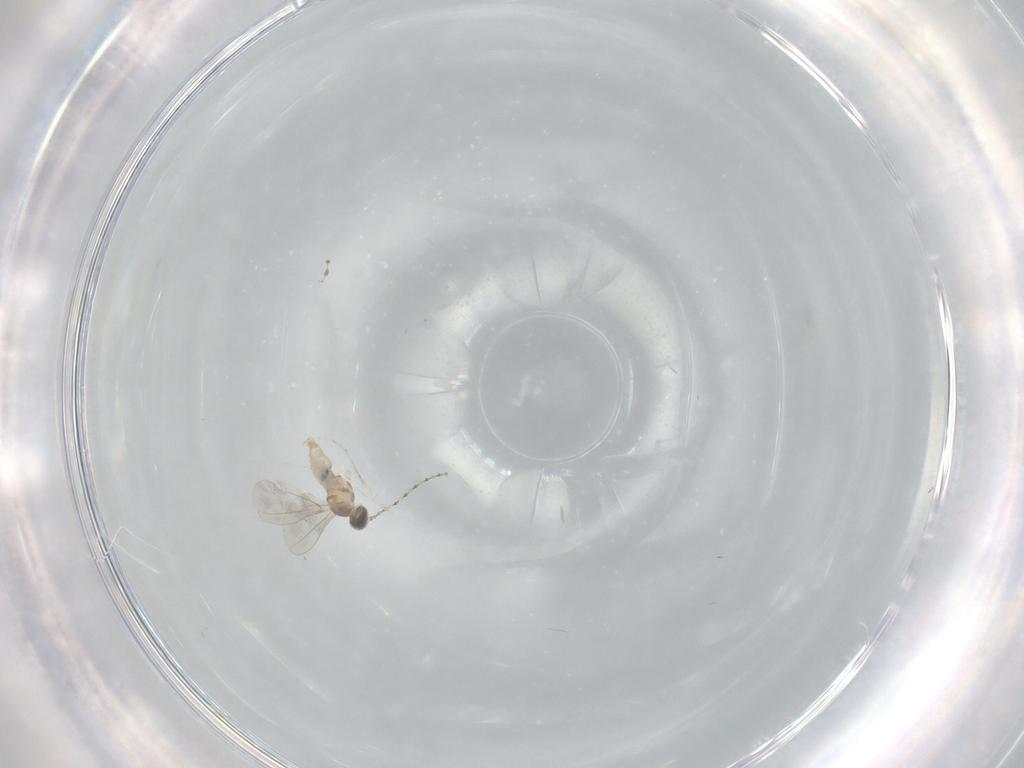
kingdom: Animalia
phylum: Arthropoda
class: Insecta
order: Diptera
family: Cecidomyiidae
